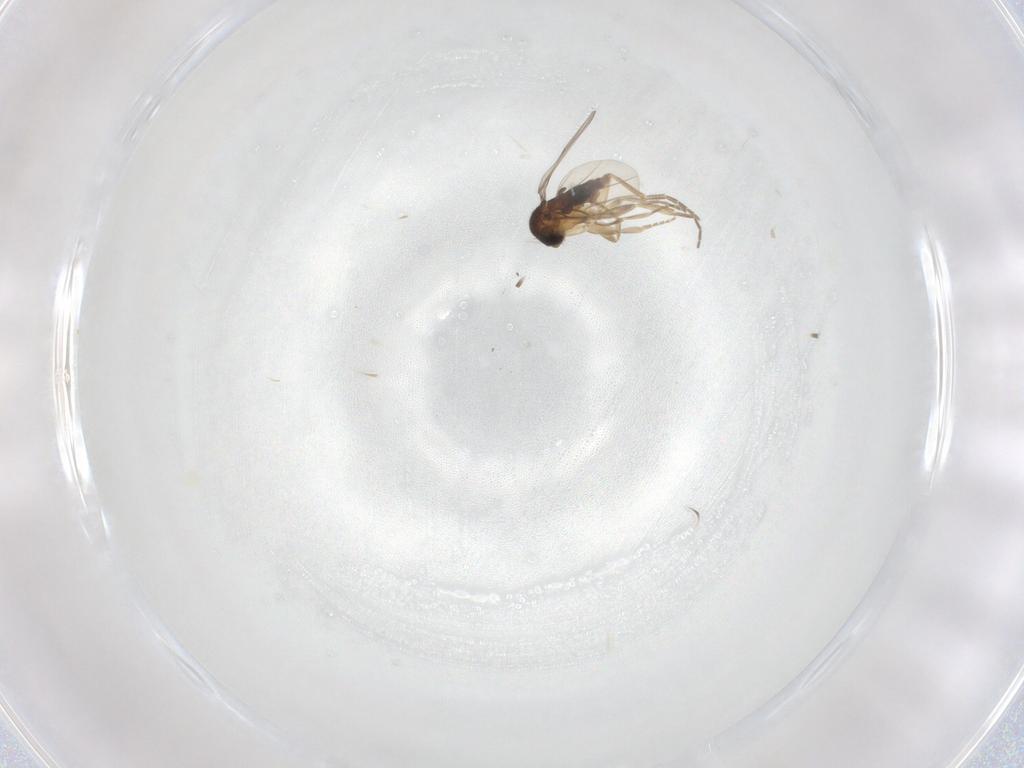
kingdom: Animalia
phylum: Arthropoda
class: Insecta
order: Diptera
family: Phoridae
